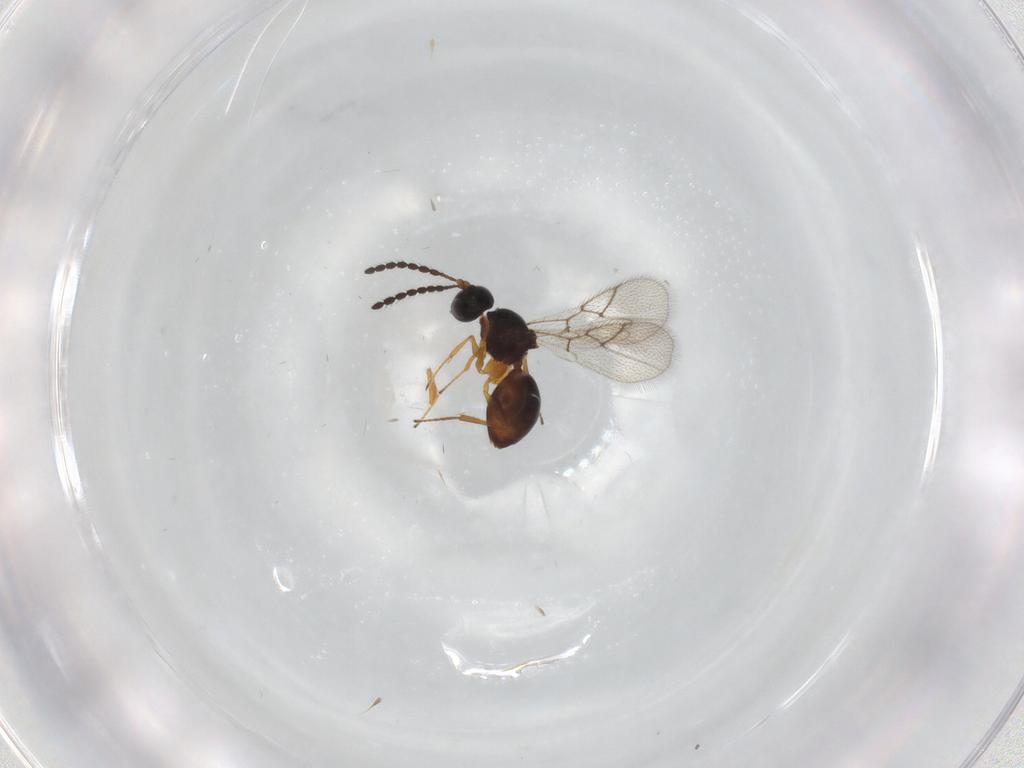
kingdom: Animalia
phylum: Arthropoda
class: Insecta
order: Hymenoptera
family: Figitidae
